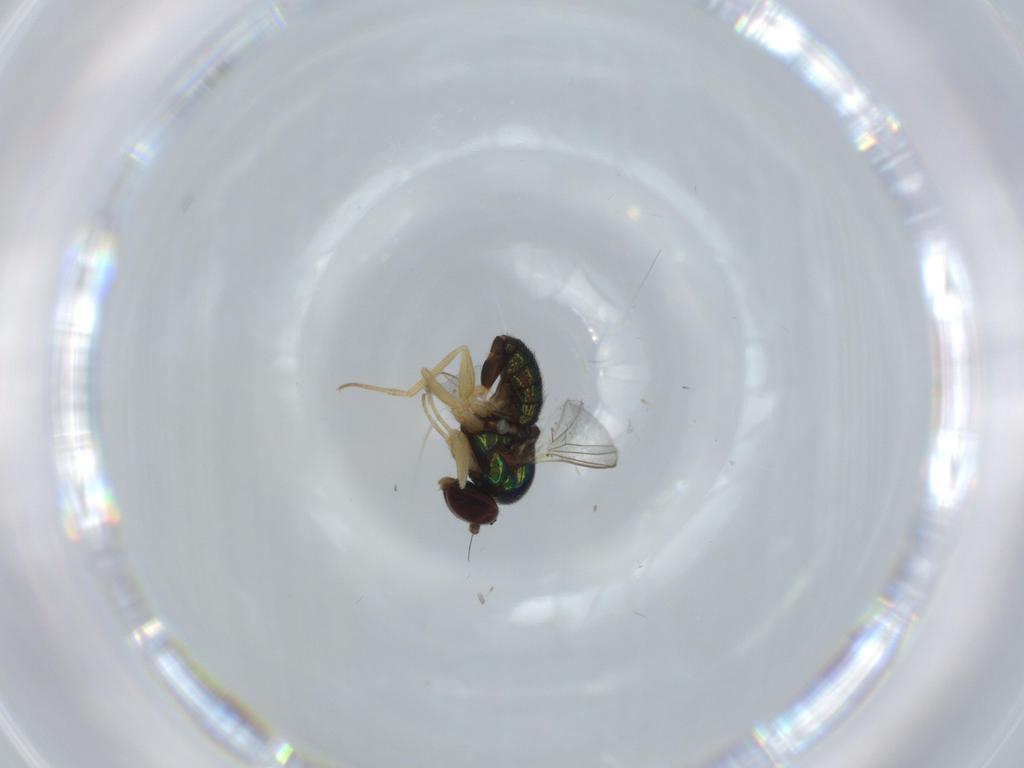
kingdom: Animalia
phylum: Arthropoda
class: Insecta
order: Diptera
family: Dolichopodidae
